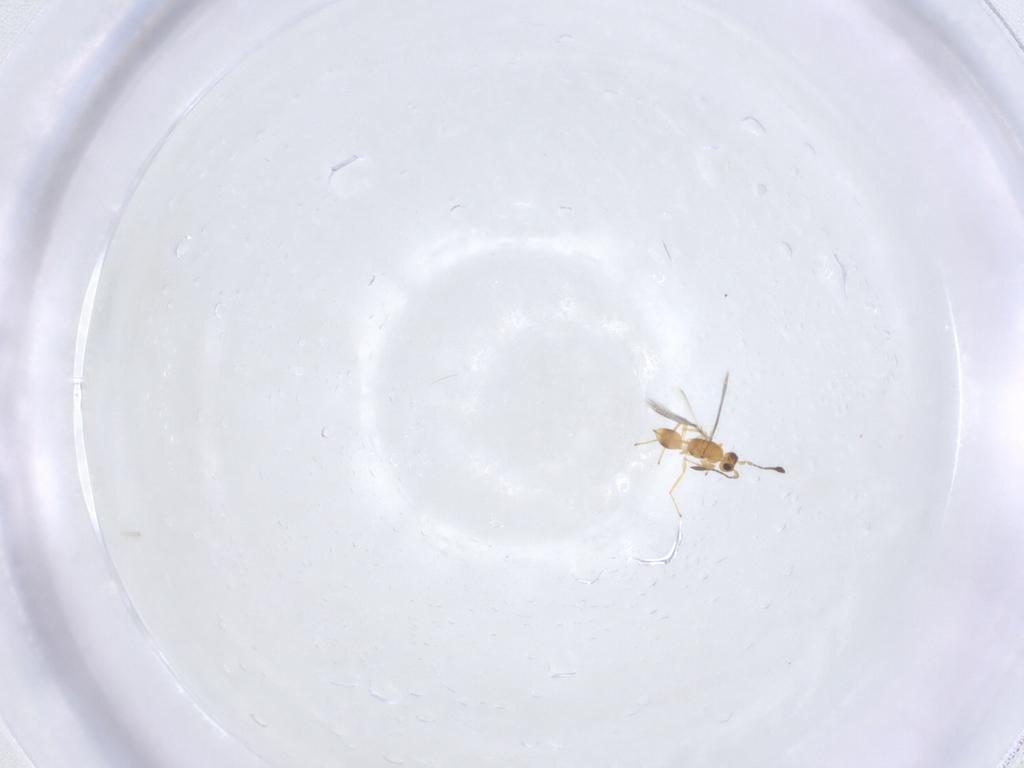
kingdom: Animalia
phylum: Arthropoda
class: Insecta
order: Hymenoptera
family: Mymaridae
